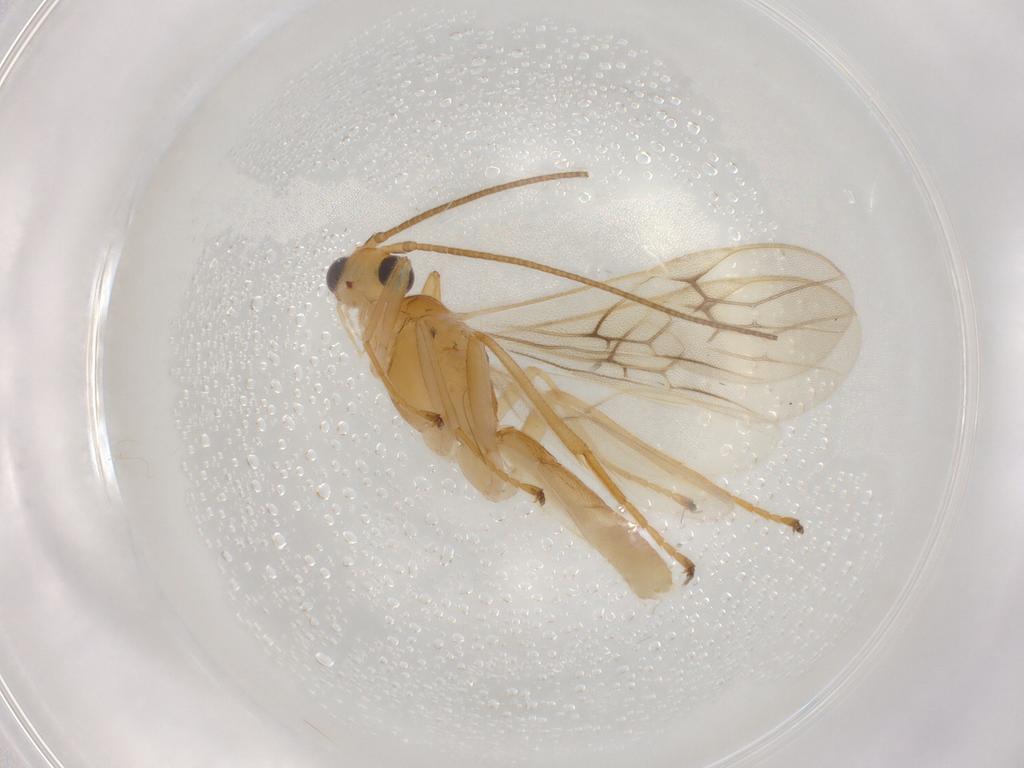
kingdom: Animalia
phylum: Arthropoda
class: Insecta
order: Hymenoptera
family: Braconidae
